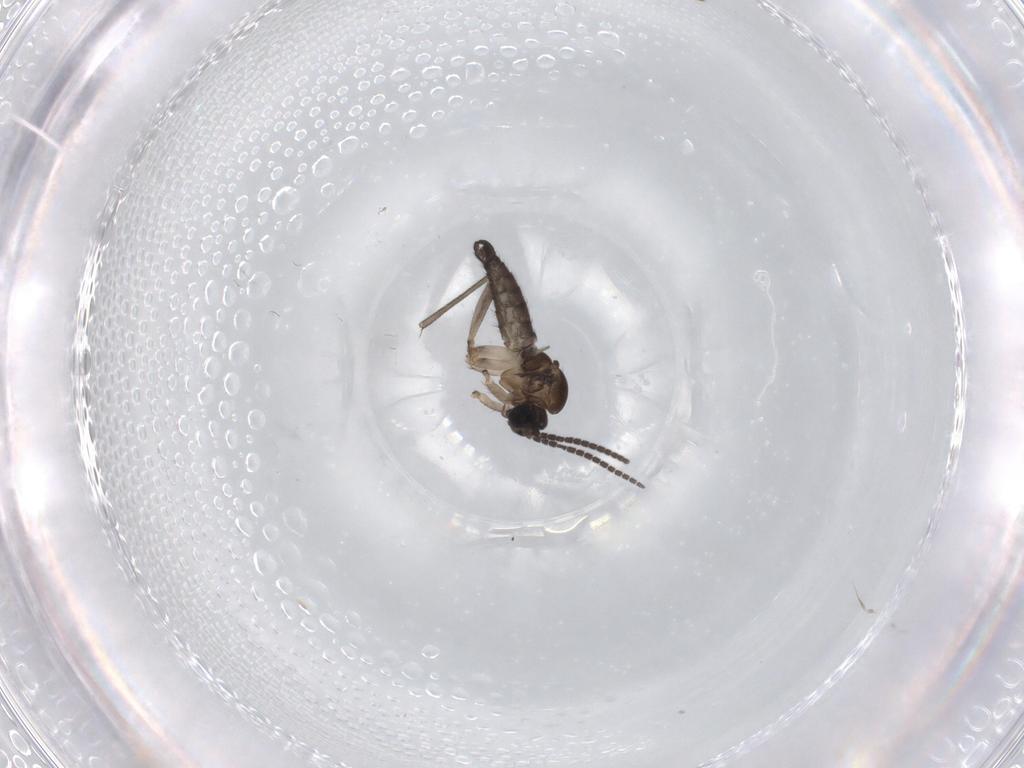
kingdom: Animalia
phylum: Arthropoda
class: Insecta
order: Diptera
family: Sciaridae
